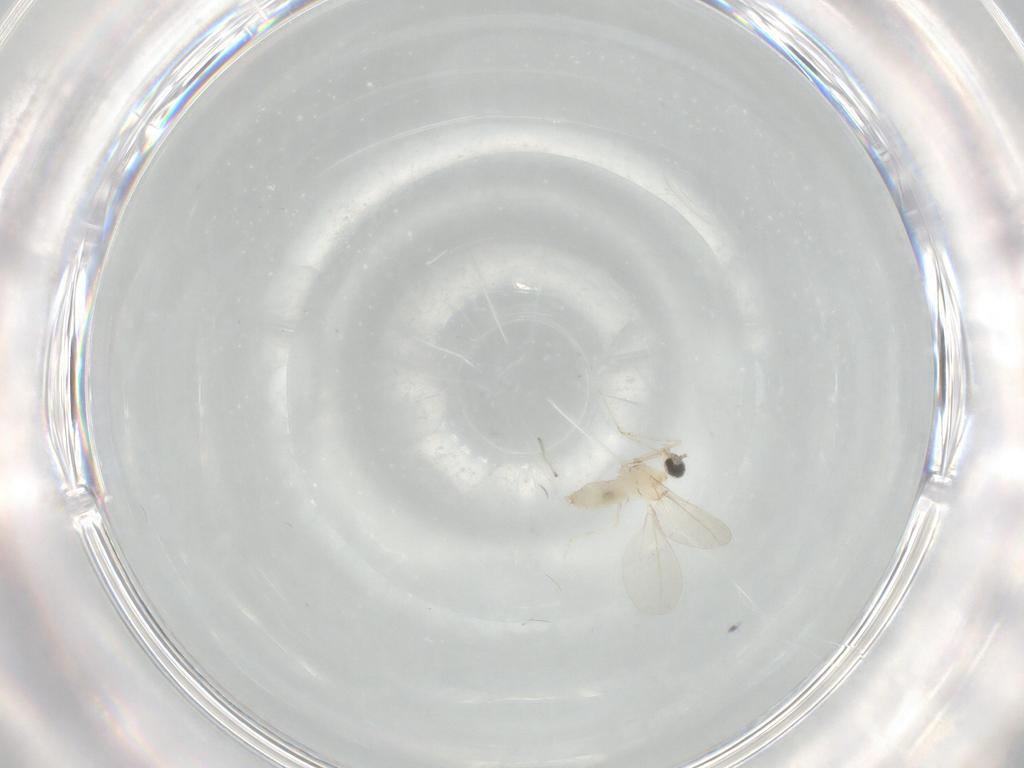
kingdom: Animalia
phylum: Arthropoda
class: Insecta
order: Diptera
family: Cecidomyiidae
